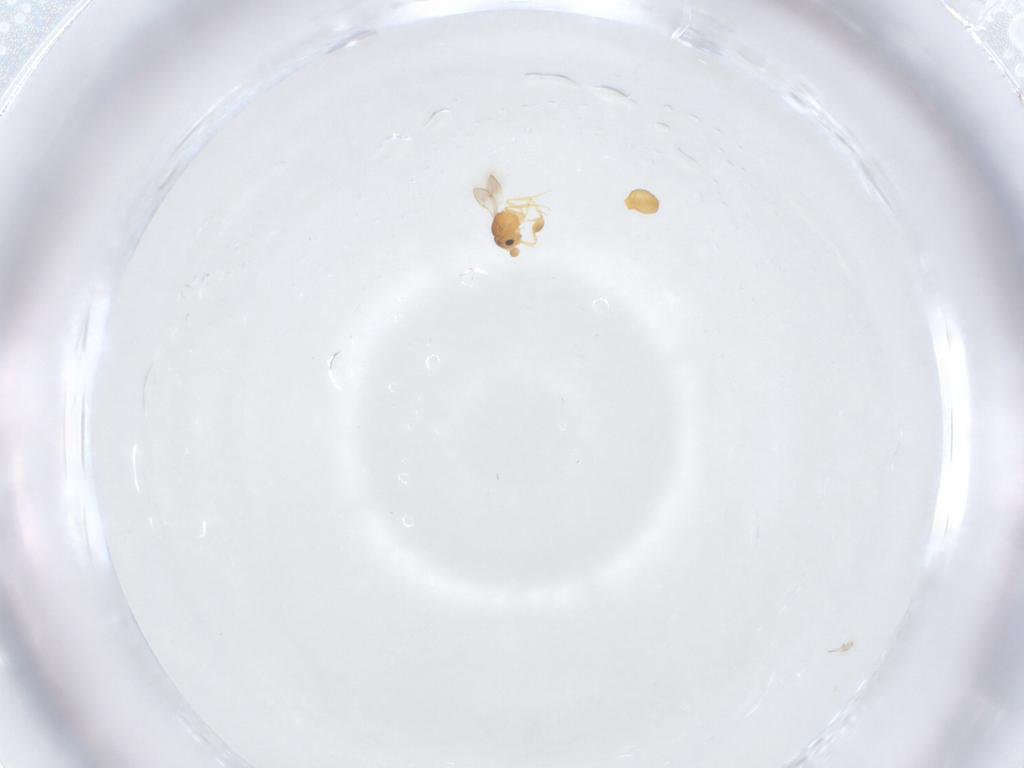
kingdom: Animalia
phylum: Arthropoda
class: Insecta
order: Hymenoptera
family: Scelionidae
